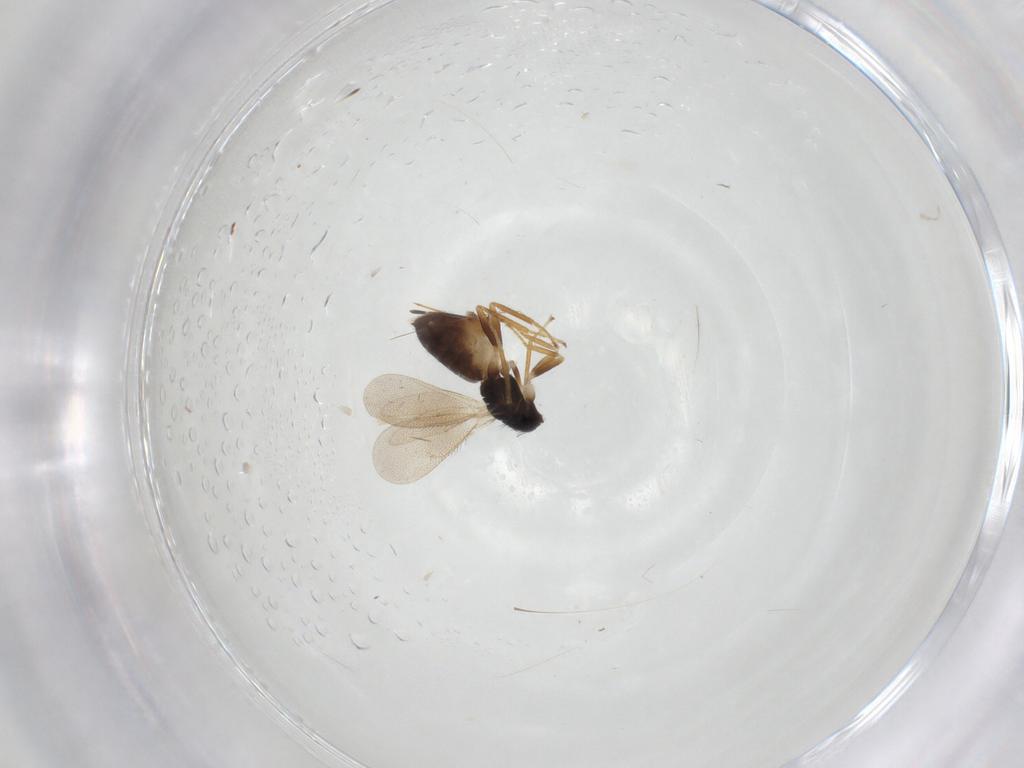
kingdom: Animalia
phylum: Arthropoda
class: Insecta
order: Hymenoptera
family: Eulophidae
